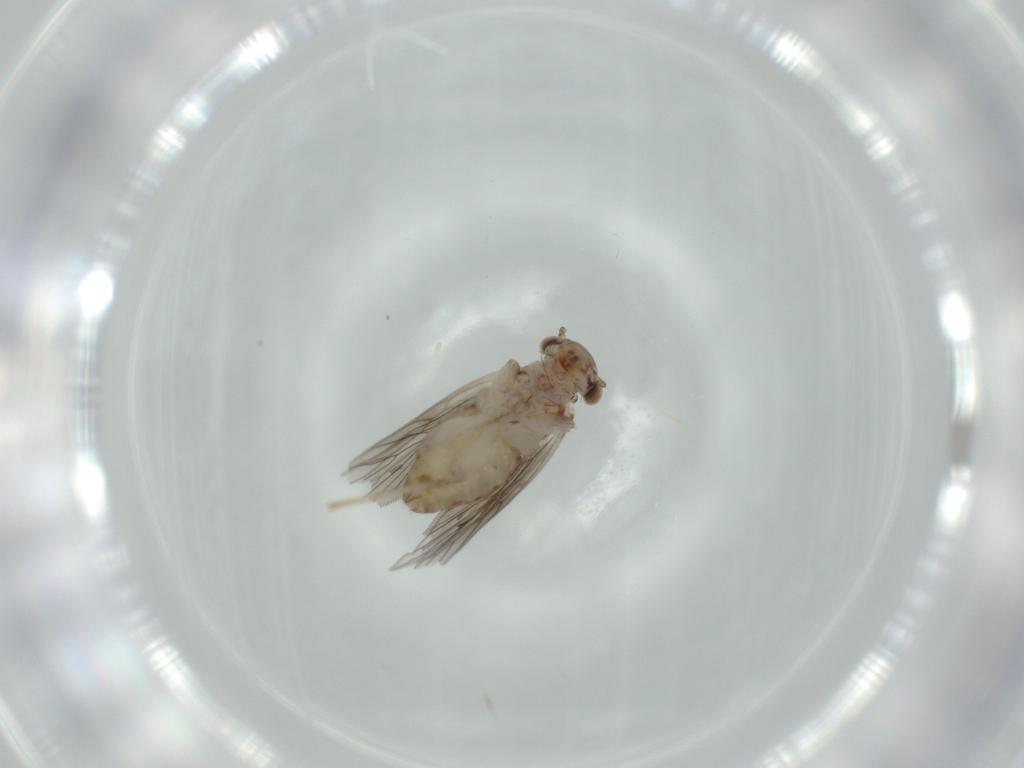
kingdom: Animalia
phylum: Arthropoda
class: Insecta
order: Psocodea
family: Lepidopsocidae
